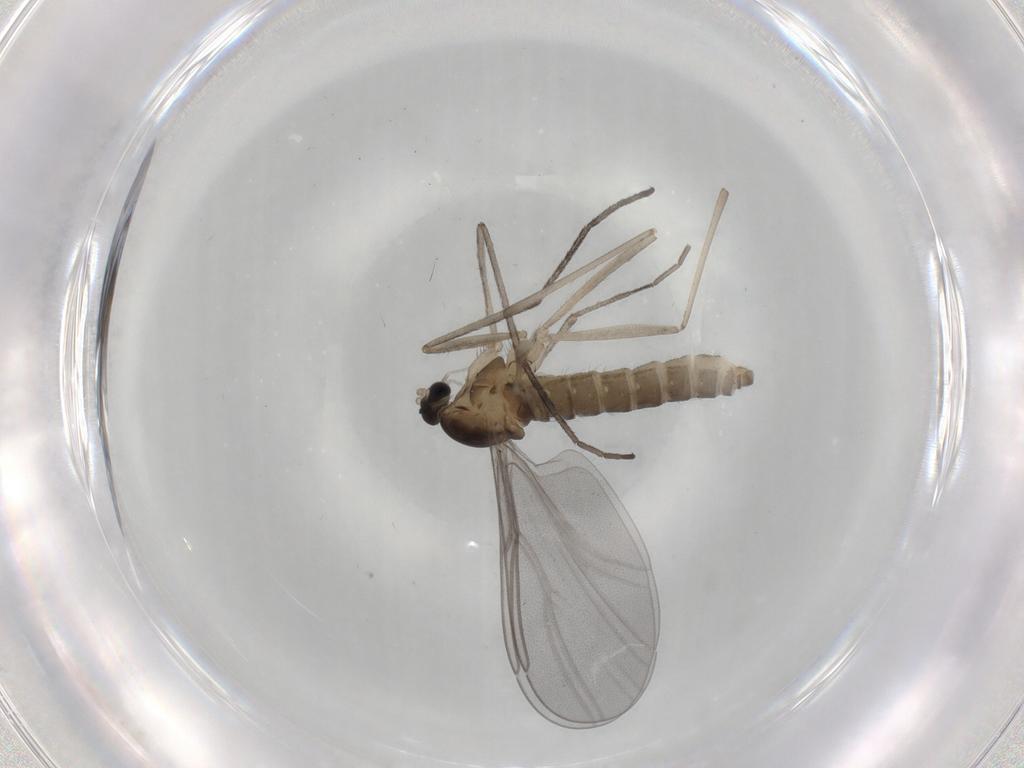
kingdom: Animalia
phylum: Arthropoda
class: Insecta
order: Diptera
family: Cecidomyiidae
